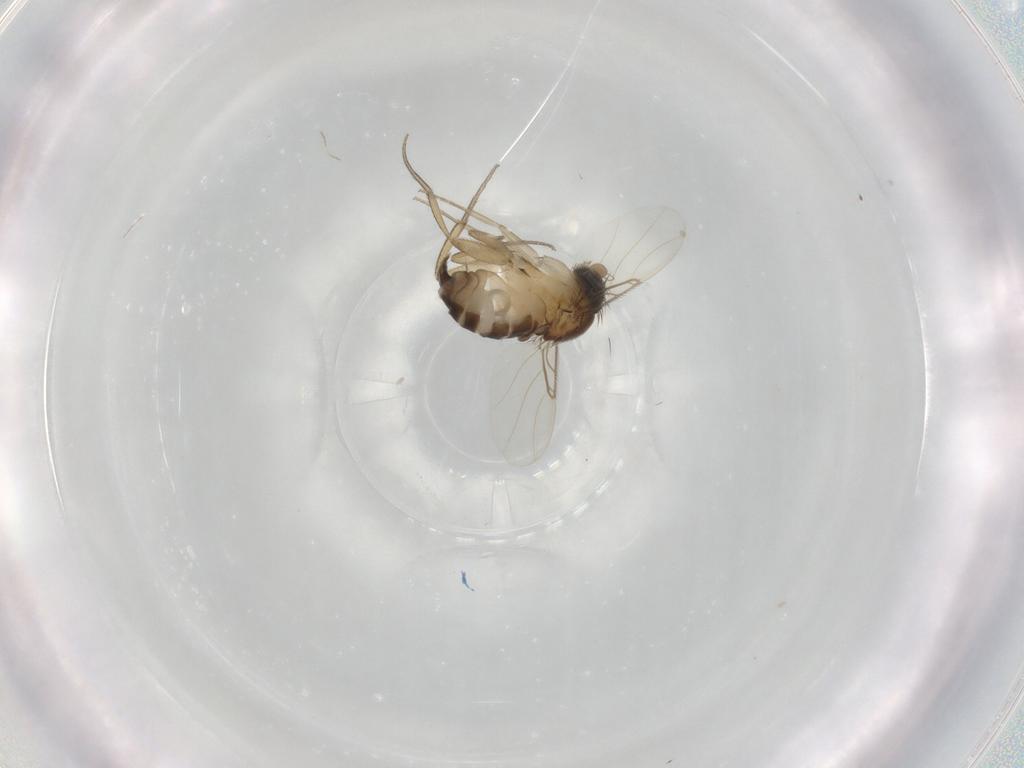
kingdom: Animalia
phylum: Arthropoda
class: Insecta
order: Diptera
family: Phoridae
